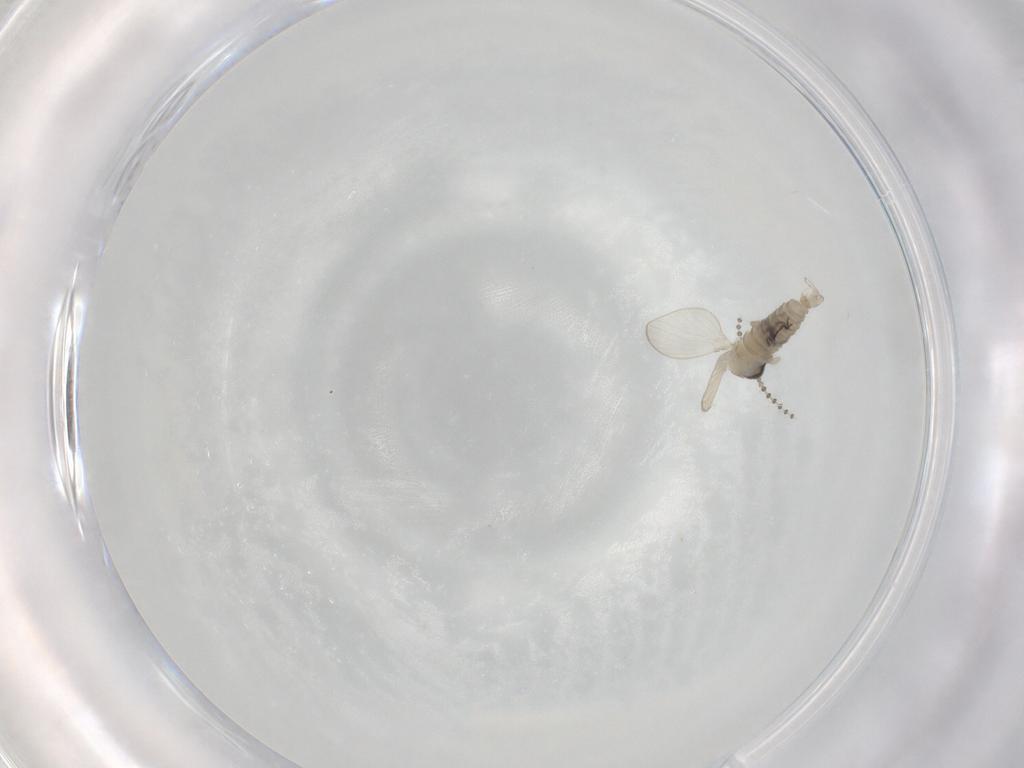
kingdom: Animalia
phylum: Arthropoda
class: Insecta
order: Diptera
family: Psychodidae
